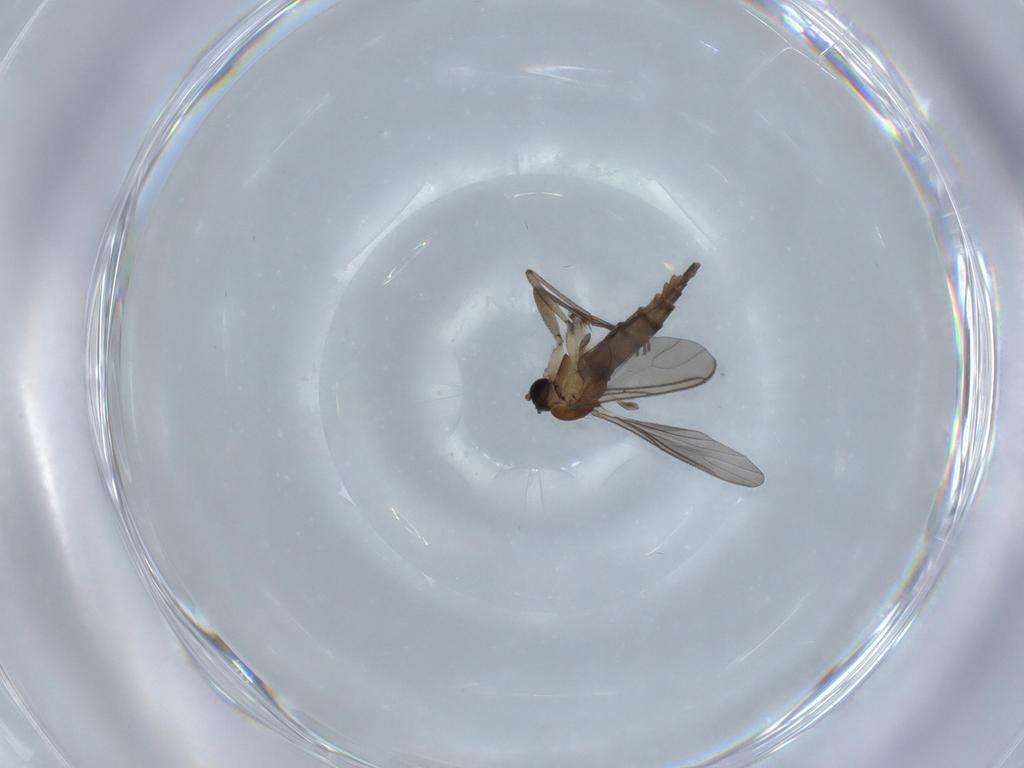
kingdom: Animalia
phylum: Arthropoda
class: Insecta
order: Diptera
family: Sciaridae
